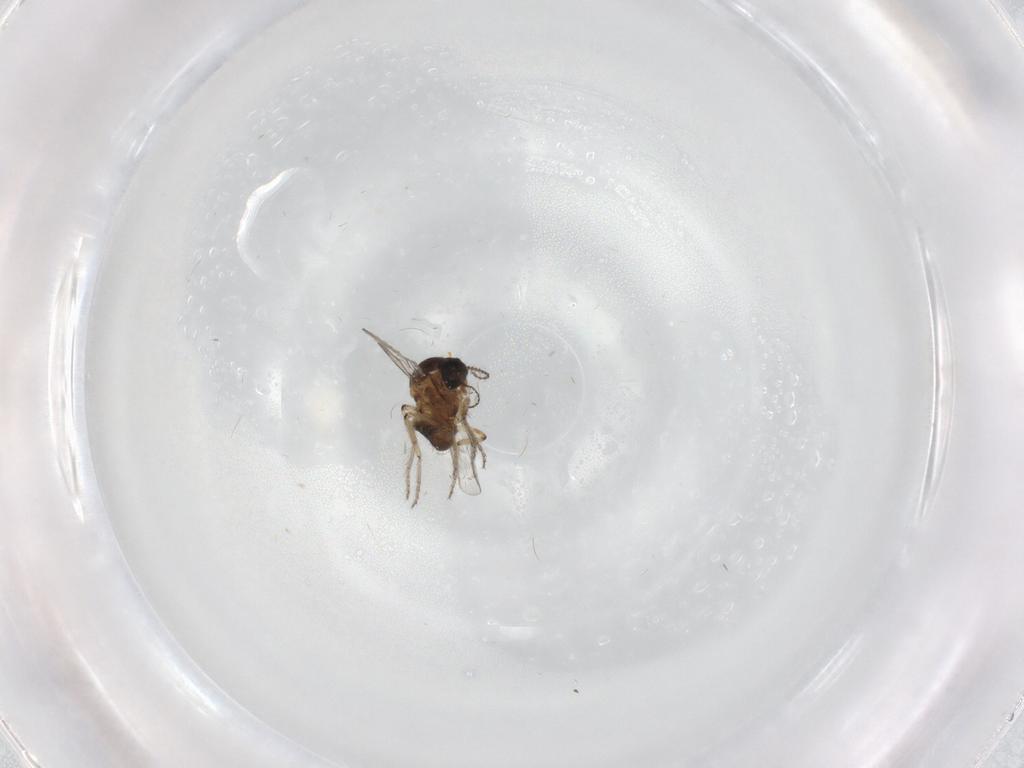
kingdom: Animalia
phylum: Arthropoda
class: Insecta
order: Diptera
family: Ceratopogonidae
